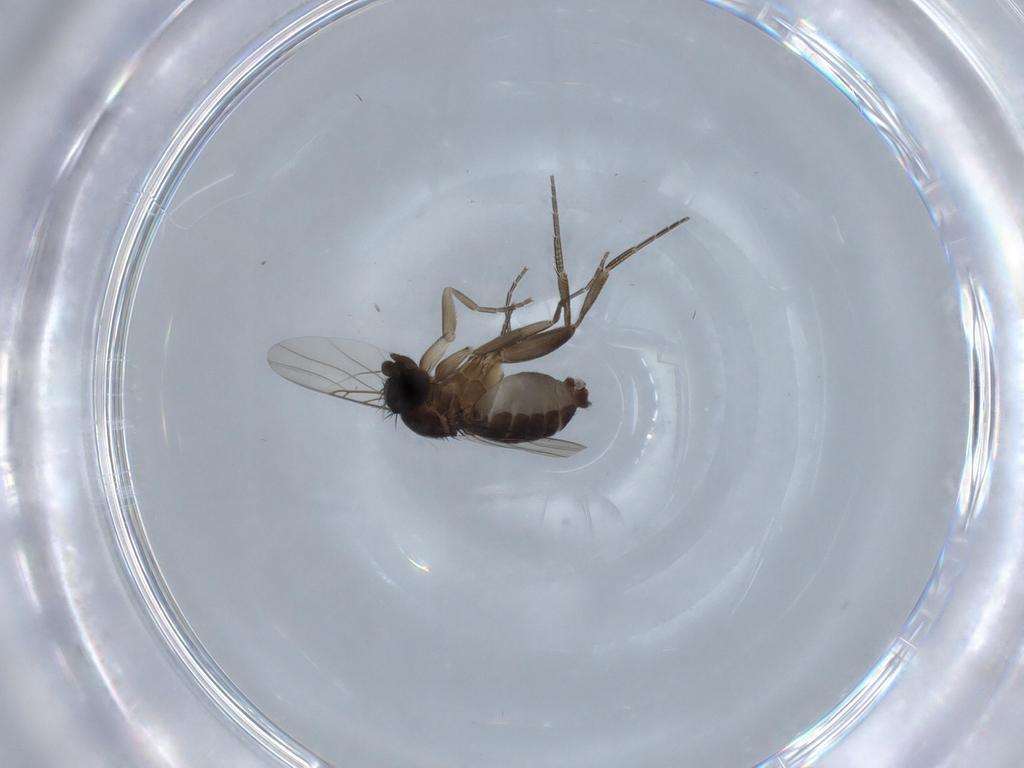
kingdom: Animalia
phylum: Arthropoda
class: Insecta
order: Diptera
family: Phoridae
